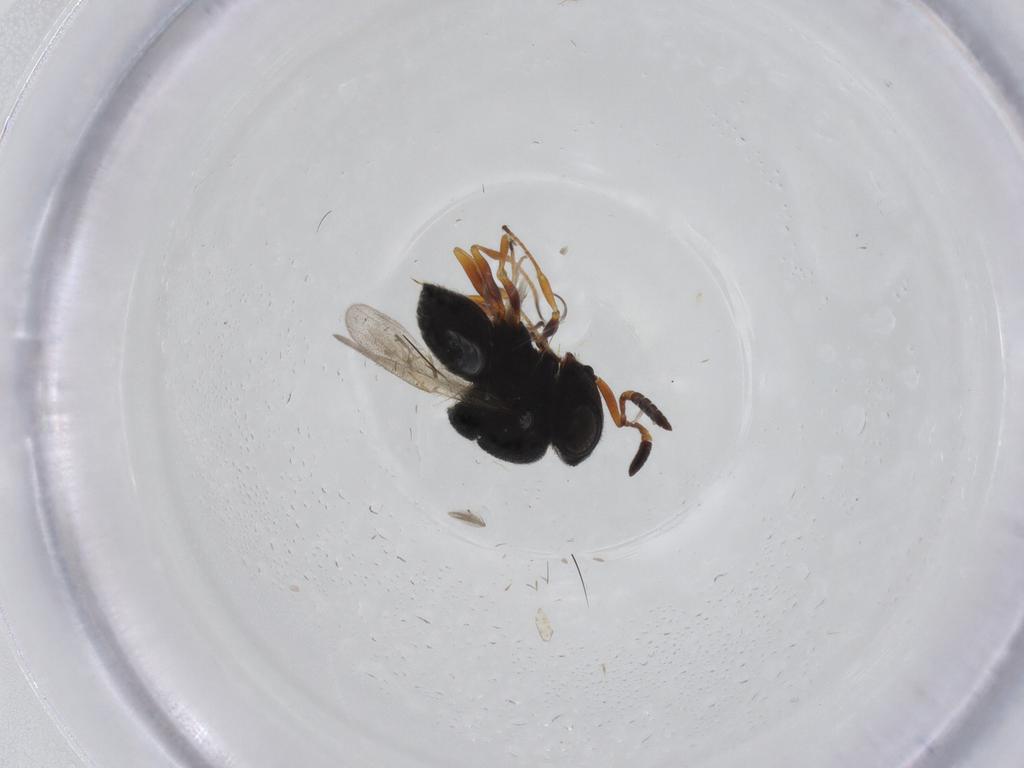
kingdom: Animalia
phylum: Arthropoda
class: Insecta
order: Hymenoptera
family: Scelionidae
